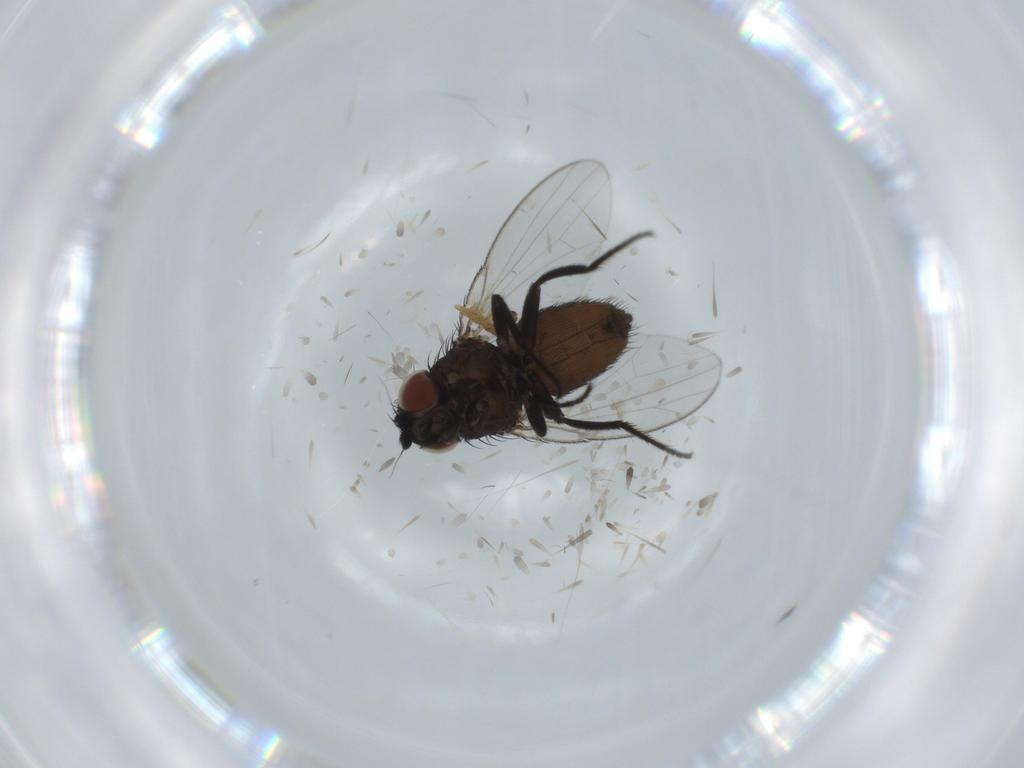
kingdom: Animalia
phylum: Arthropoda
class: Insecta
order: Diptera
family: Milichiidae
